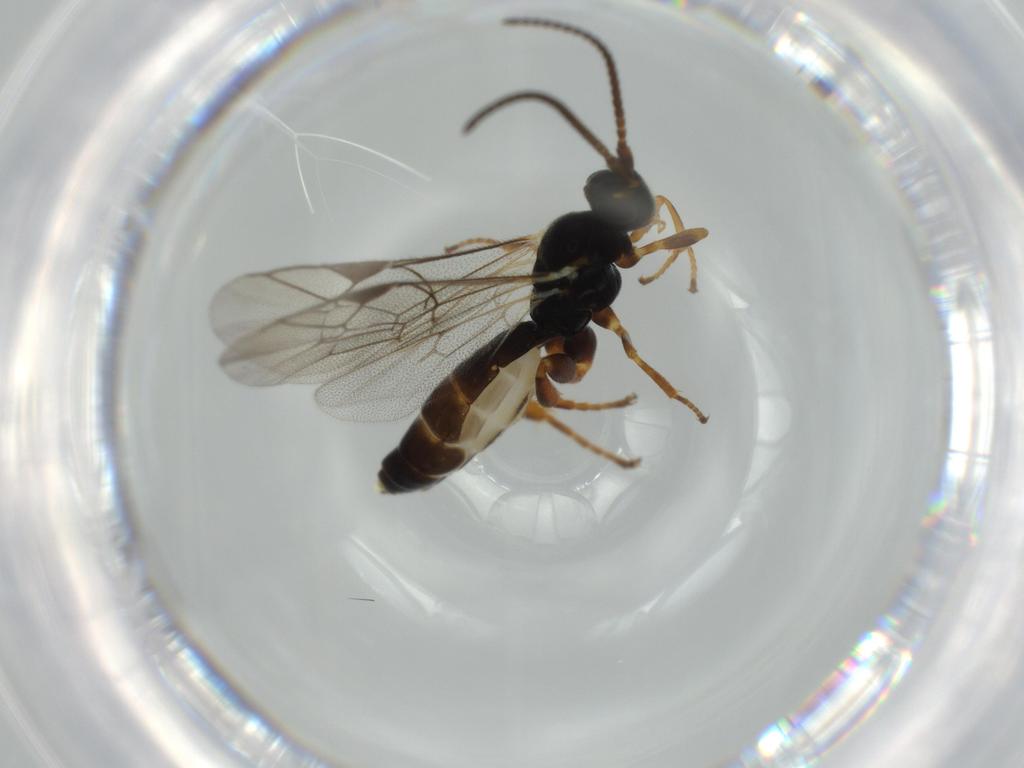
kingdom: Animalia
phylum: Arthropoda
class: Insecta
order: Hymenoptera
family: Ichneumonidae
